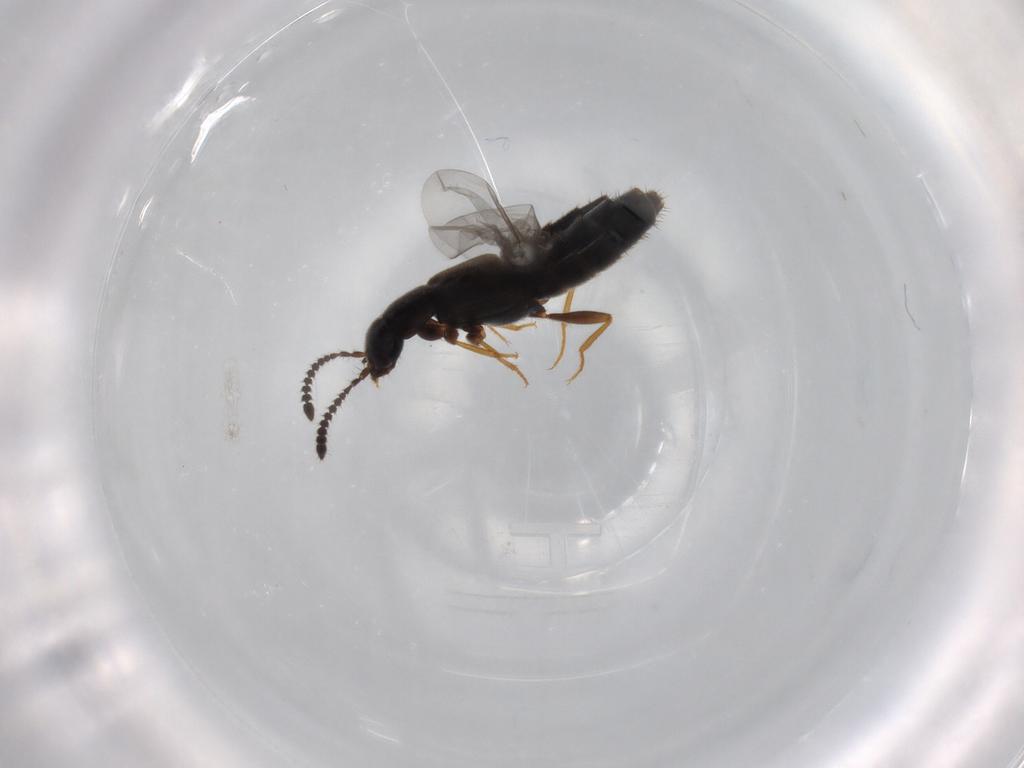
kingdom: Animalia
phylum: Arthropoda
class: Insecta
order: Coleoptera
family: Staphylinidae
